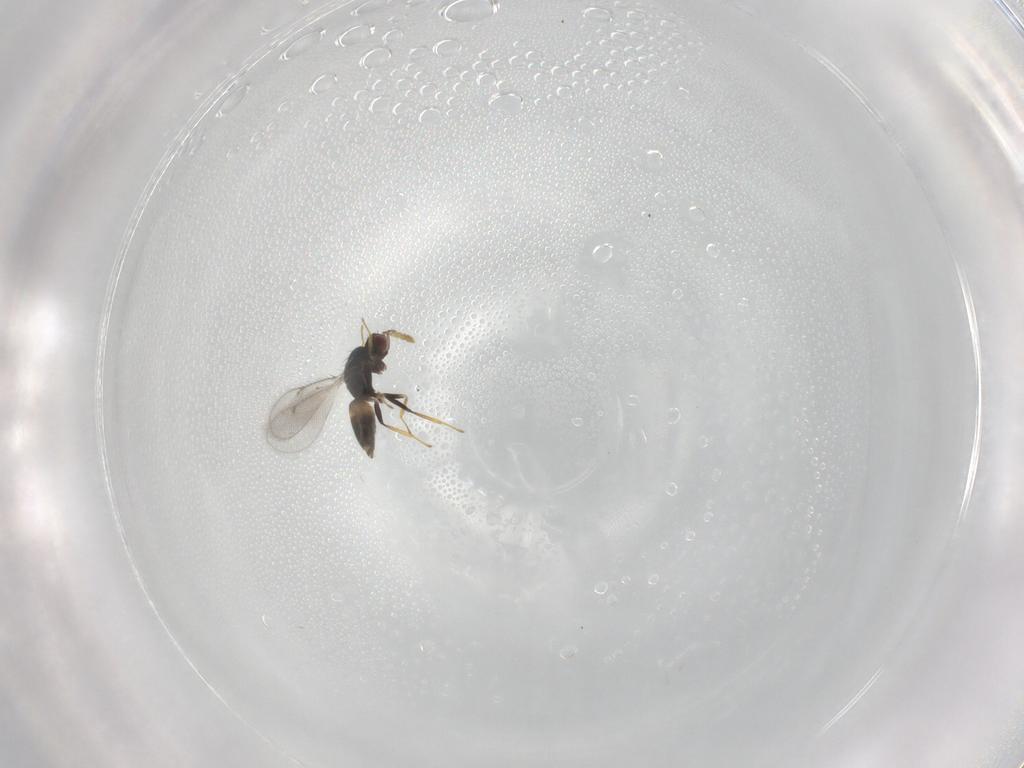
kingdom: Animalia
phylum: Arthropoda
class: Insecta
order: Hymenoptera
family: Eulophidae
